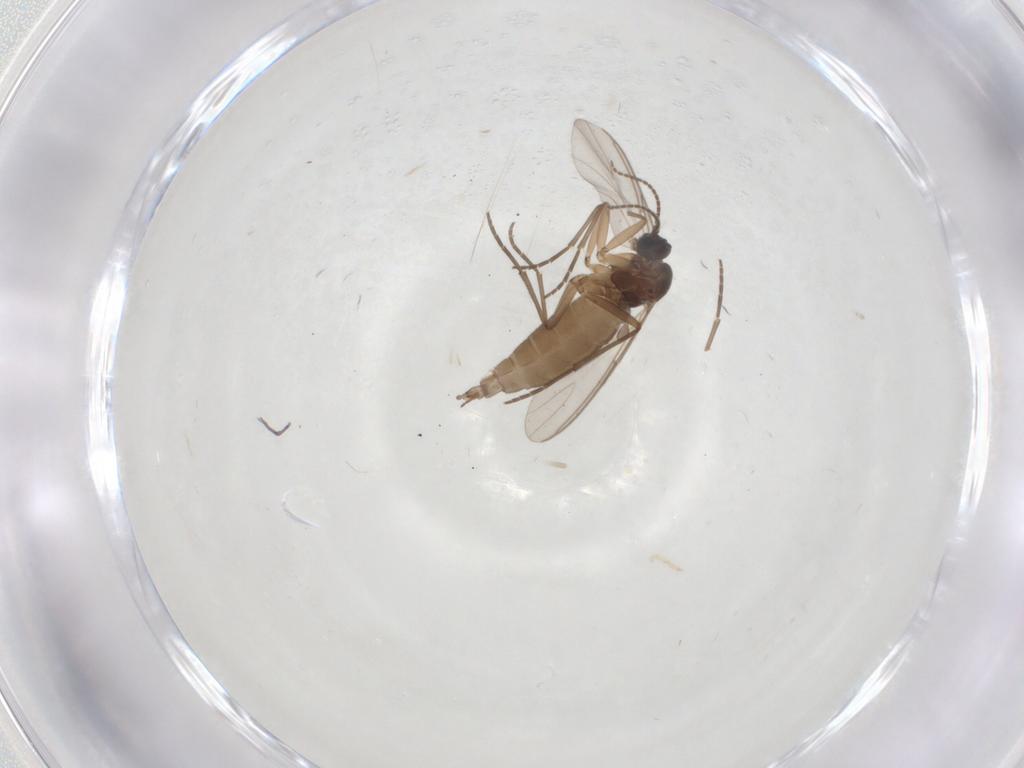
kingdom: Animalia
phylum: Arthropoda
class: Insecta
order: Diptera
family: Sciaridae
